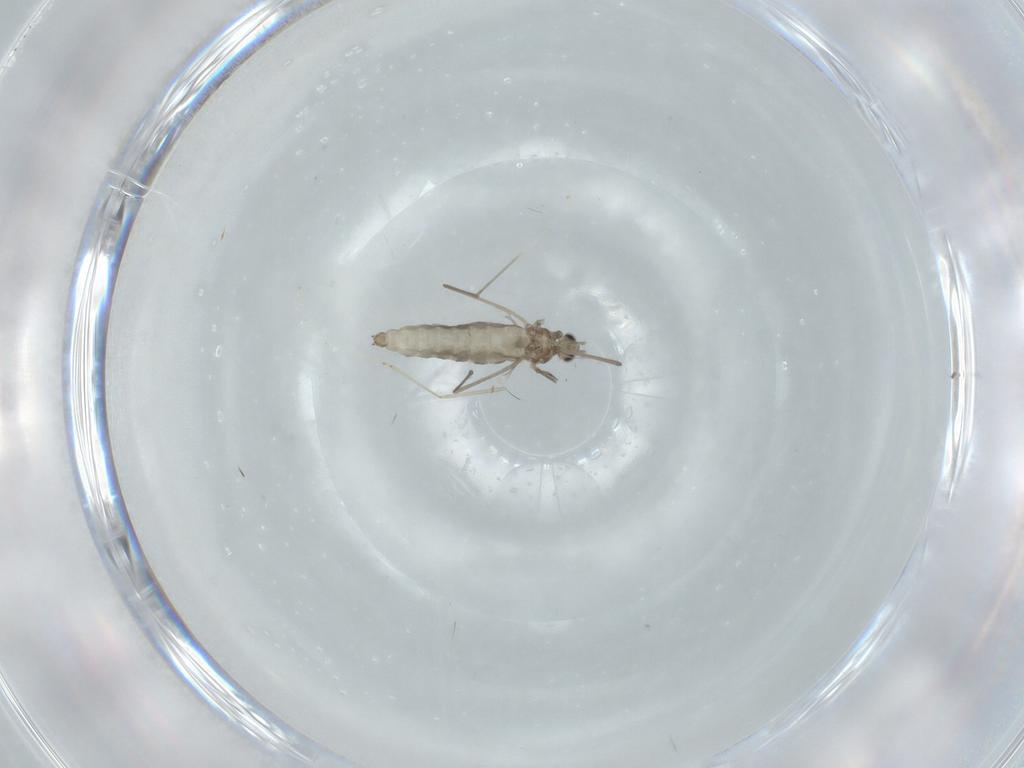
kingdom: Animalia
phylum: Arthropoda
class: Insecta
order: Diptera
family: Cecidomyiidae
